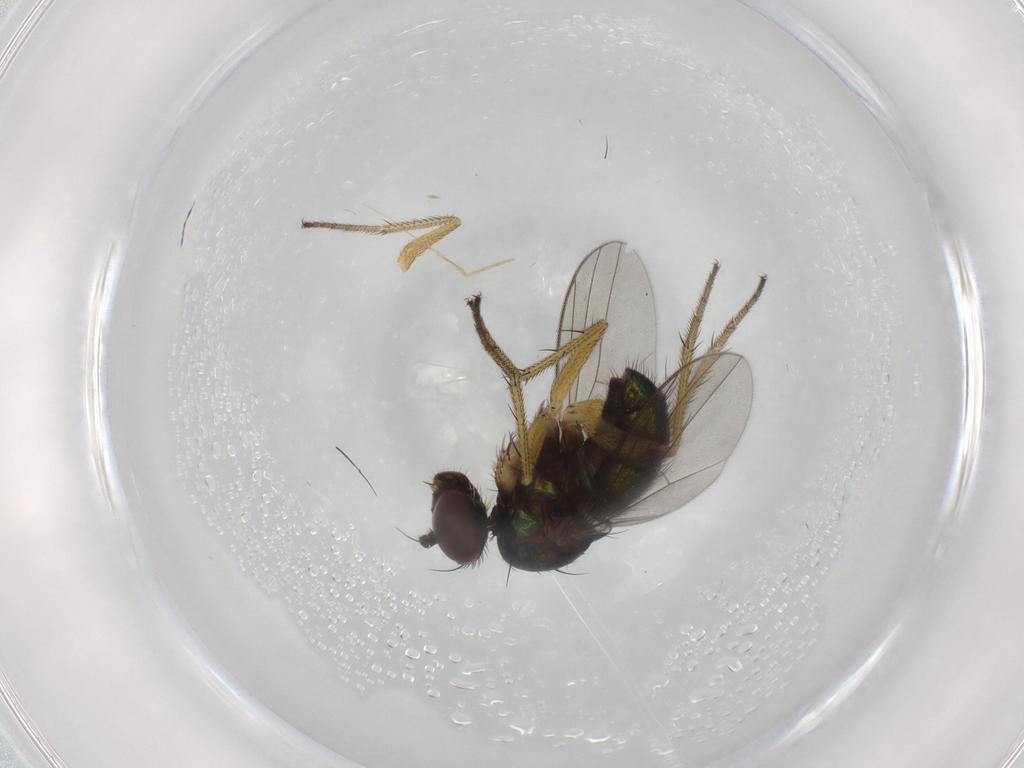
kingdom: Animalia
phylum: Arthropoda
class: Insecta
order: Diptera
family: Dolichopodidae
